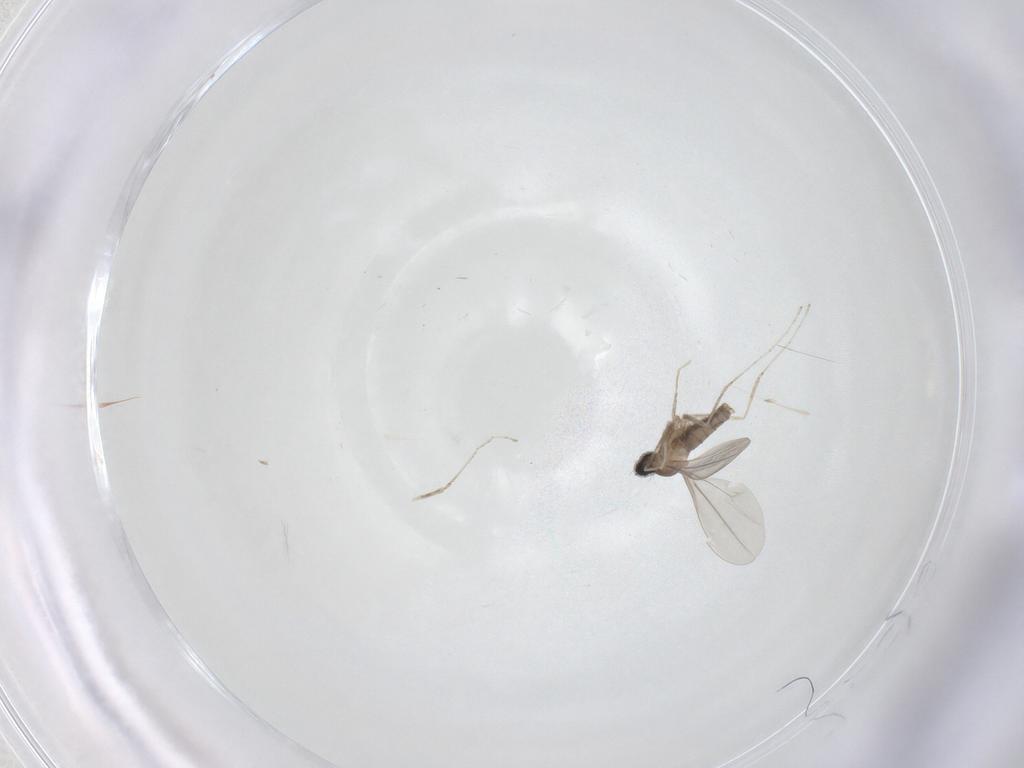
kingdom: Animalia
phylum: Arthropoda
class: Insecta
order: Diptera
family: Cecidomyiidae
